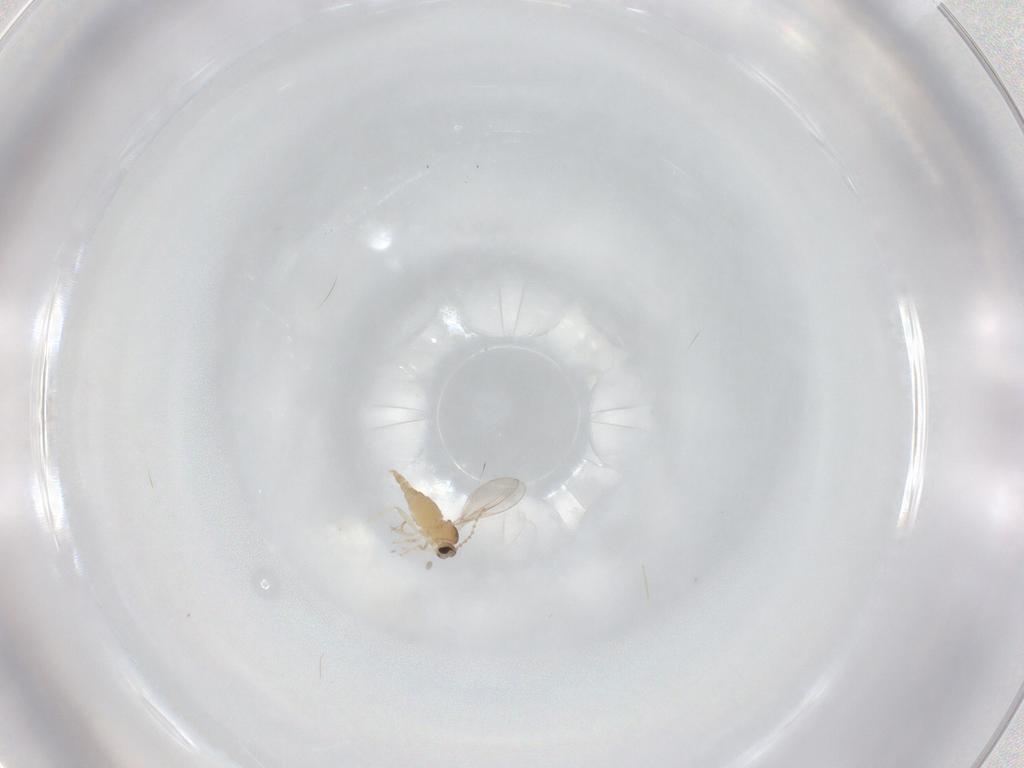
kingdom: Animalia
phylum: Arthropoda
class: Insecta
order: Diptera
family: Cecidomyiidae
